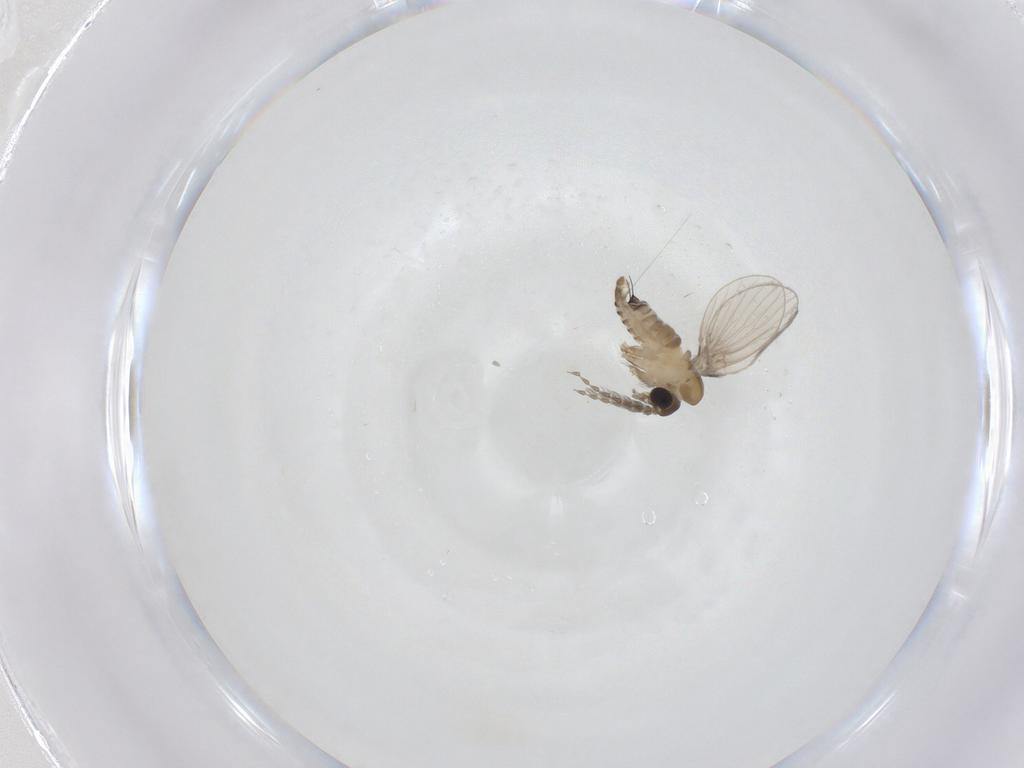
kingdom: Animalia
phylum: Arthropoda
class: Insecta
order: Diptera
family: Psychodidae
